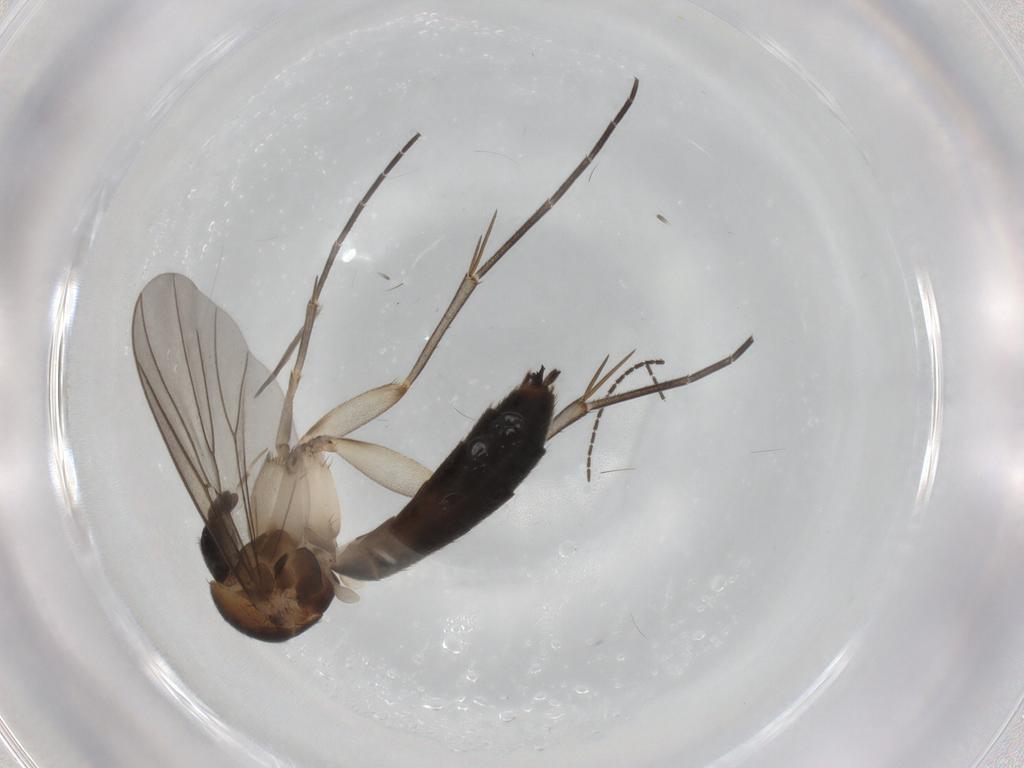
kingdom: Animalia
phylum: Arthropoda
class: Insecta
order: Diptera
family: Mycetophilidae
